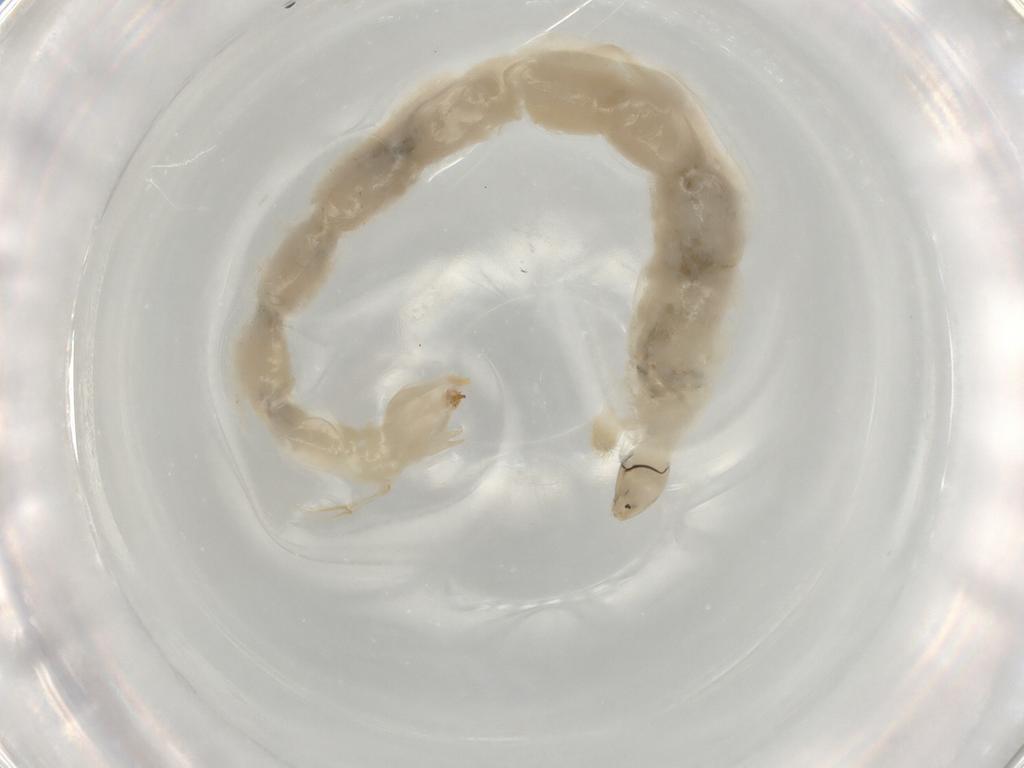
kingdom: Animalia
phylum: Arthropoda
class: Insecta
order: Diptera
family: Chironomidae
